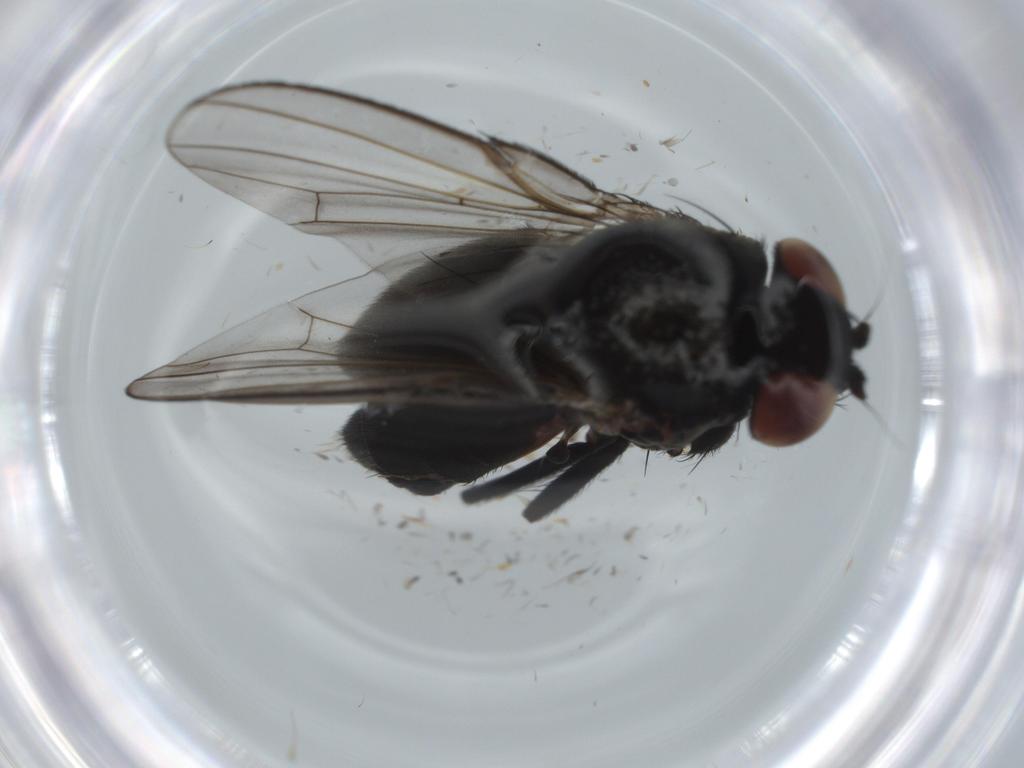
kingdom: Animalia
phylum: Arthropoda
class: Insecta
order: Diptera
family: Milichiidae
